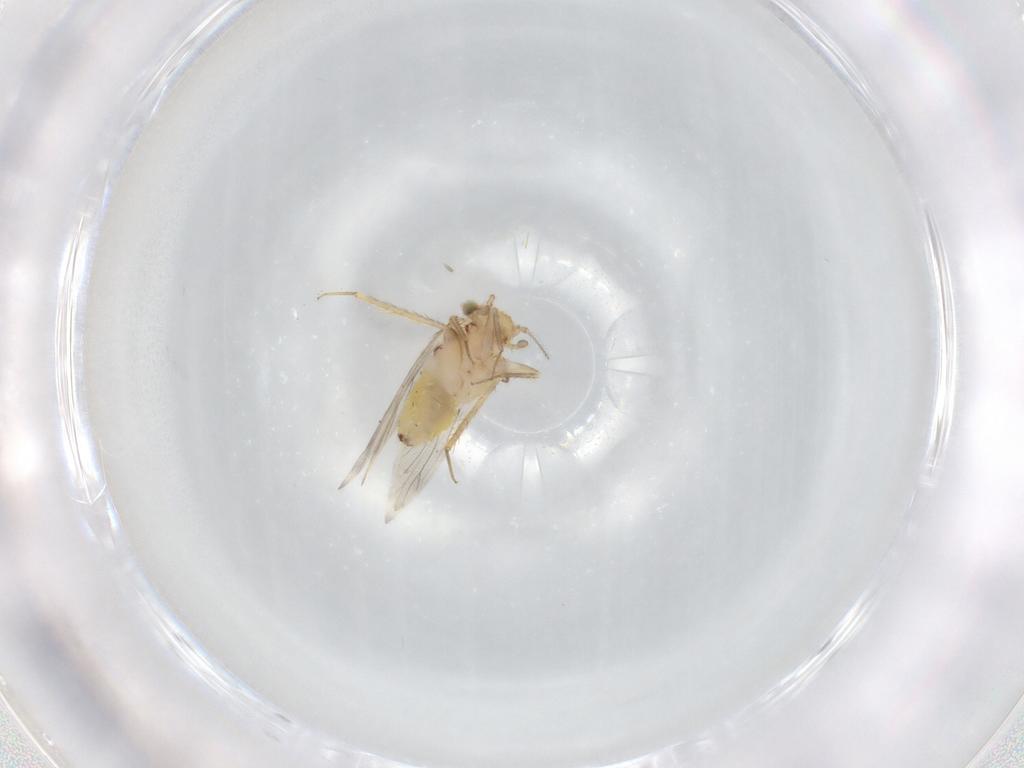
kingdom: Animalia
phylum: Arthropoda
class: Insecta
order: Psocodea
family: Lepidopsocidae
